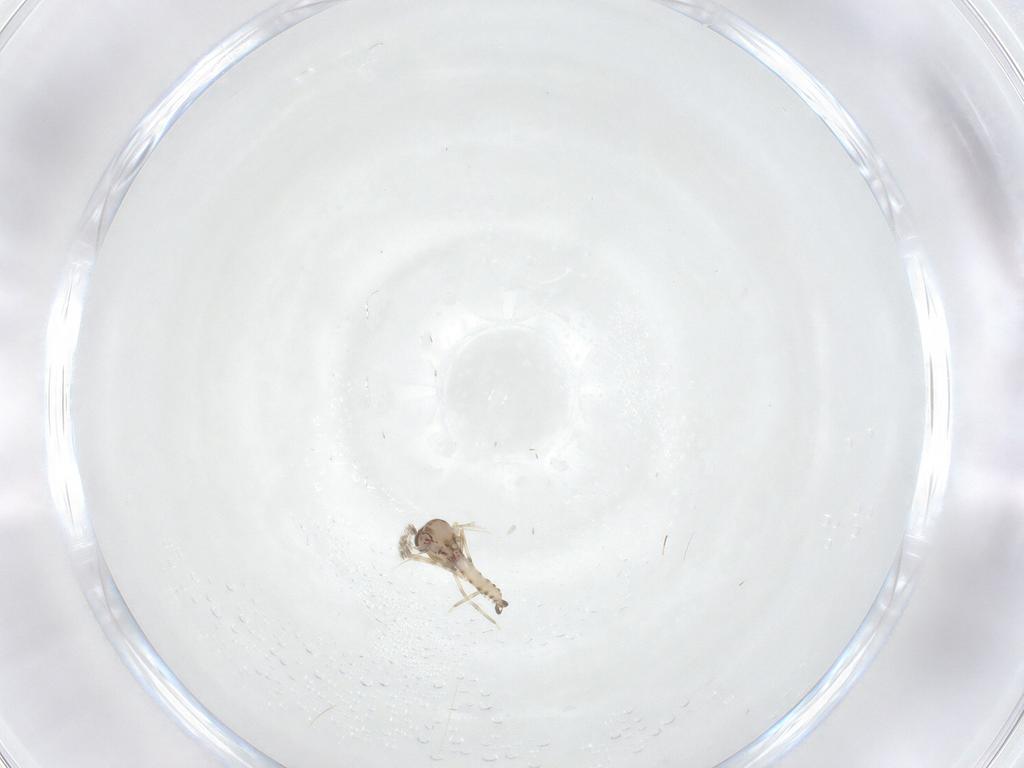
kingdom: Animalia
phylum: Arthropoda
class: Insecta
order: Diptera
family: Ceratopogonidae
